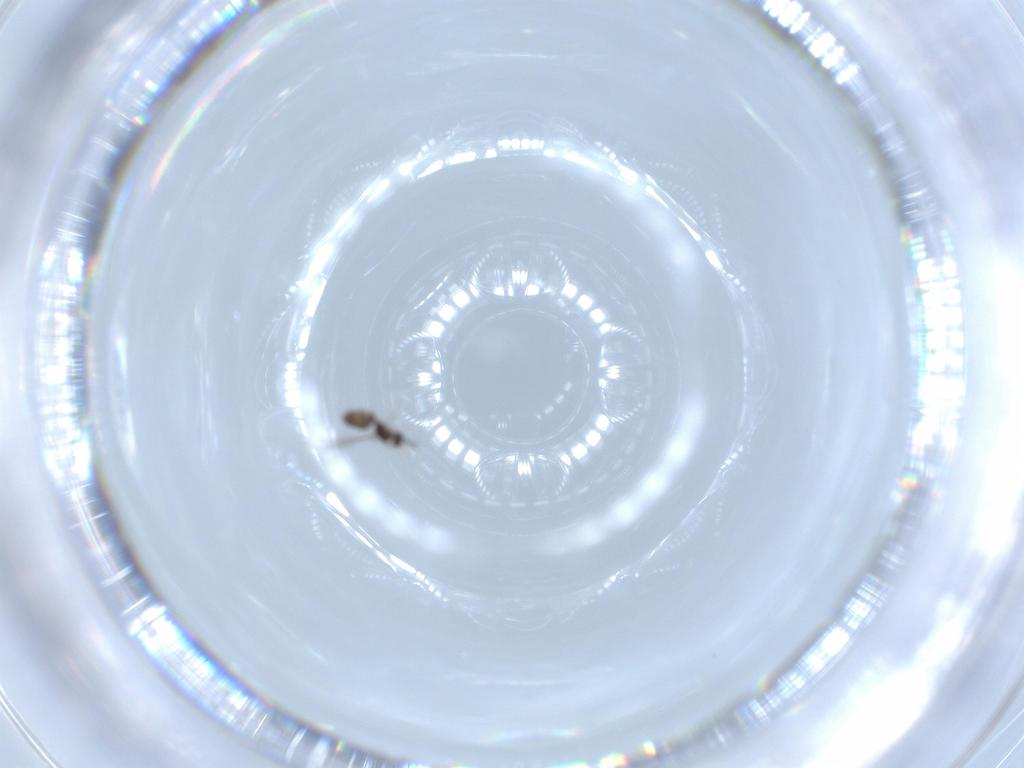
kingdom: Animalia
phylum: Arthropoda
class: Insecta
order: Hymenoptera
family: Mymaridae
